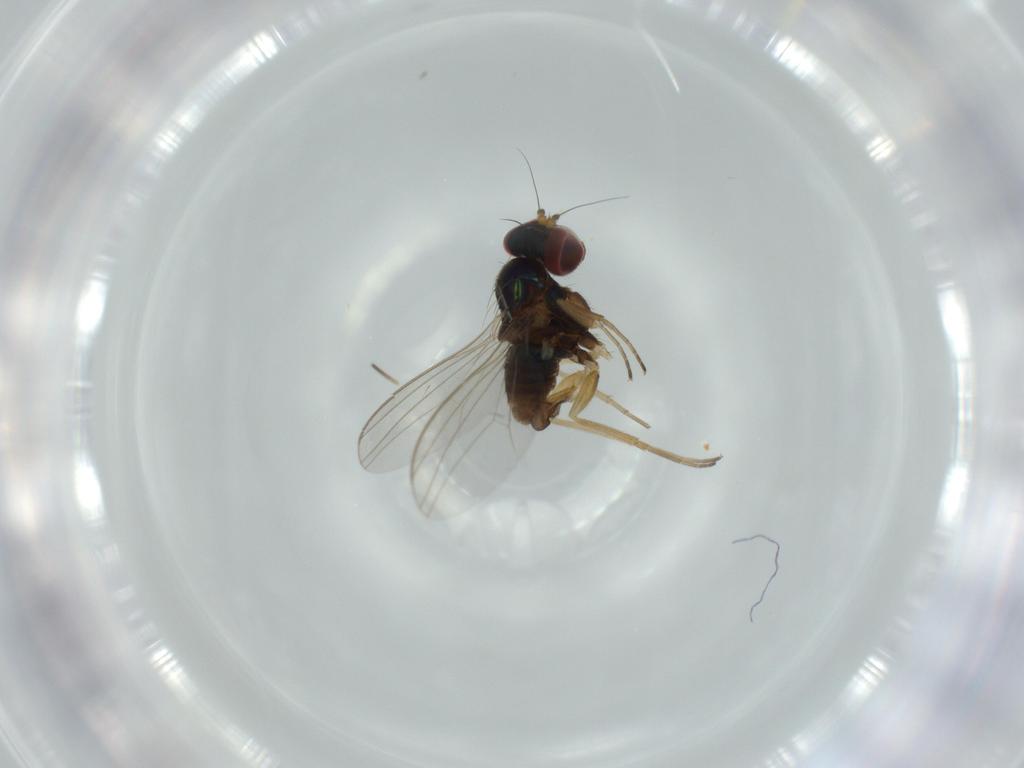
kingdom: Animalia
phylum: Arthropoda
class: Insecta
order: Diptera
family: Dolichopodidae
